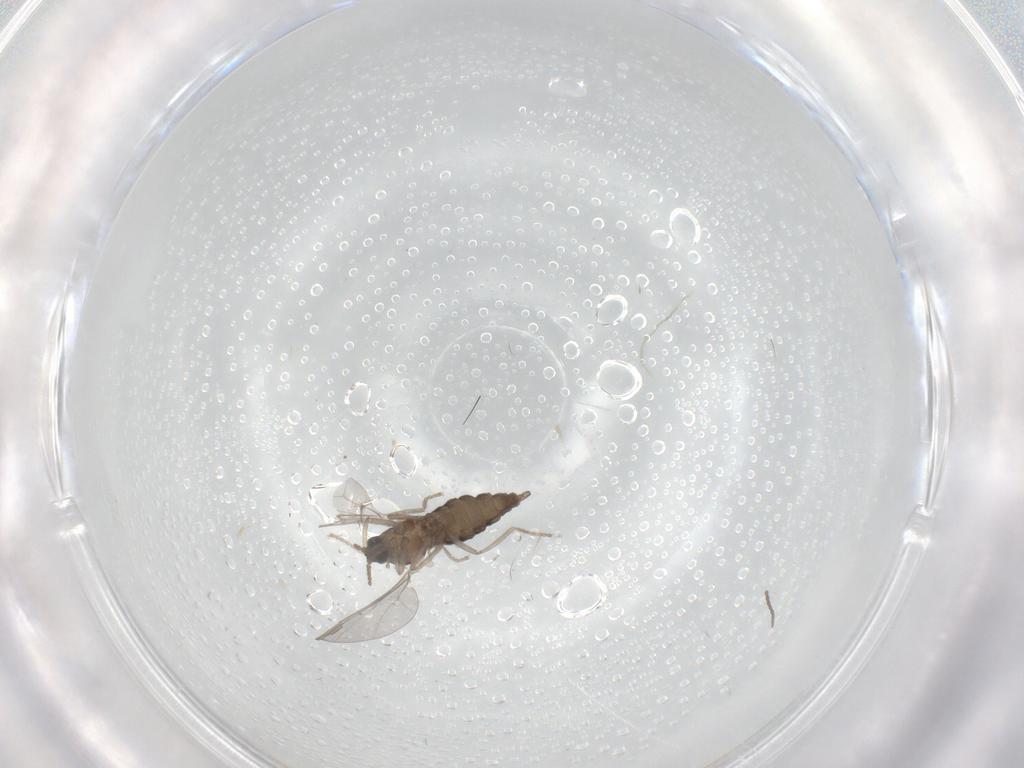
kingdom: Animalia
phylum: Arthropoda
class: Insecta
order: Diptera
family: Cecidomyiidae
